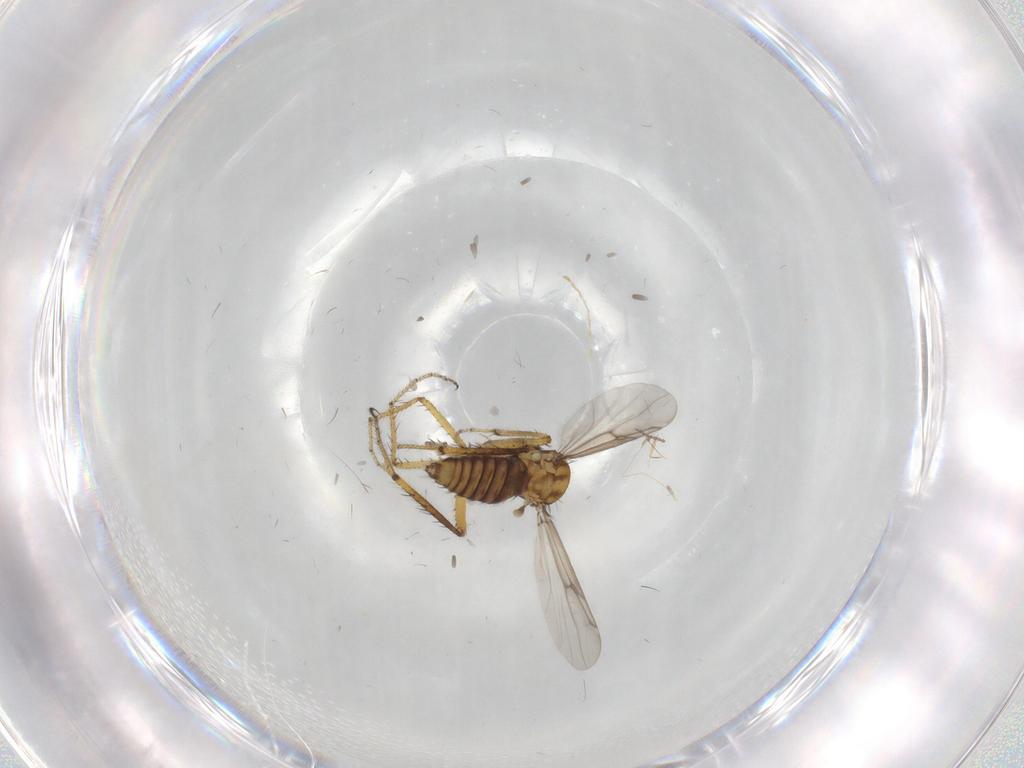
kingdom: Animalia
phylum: Arthropoda
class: Insecta
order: Diptera
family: Ceratopogonidae
